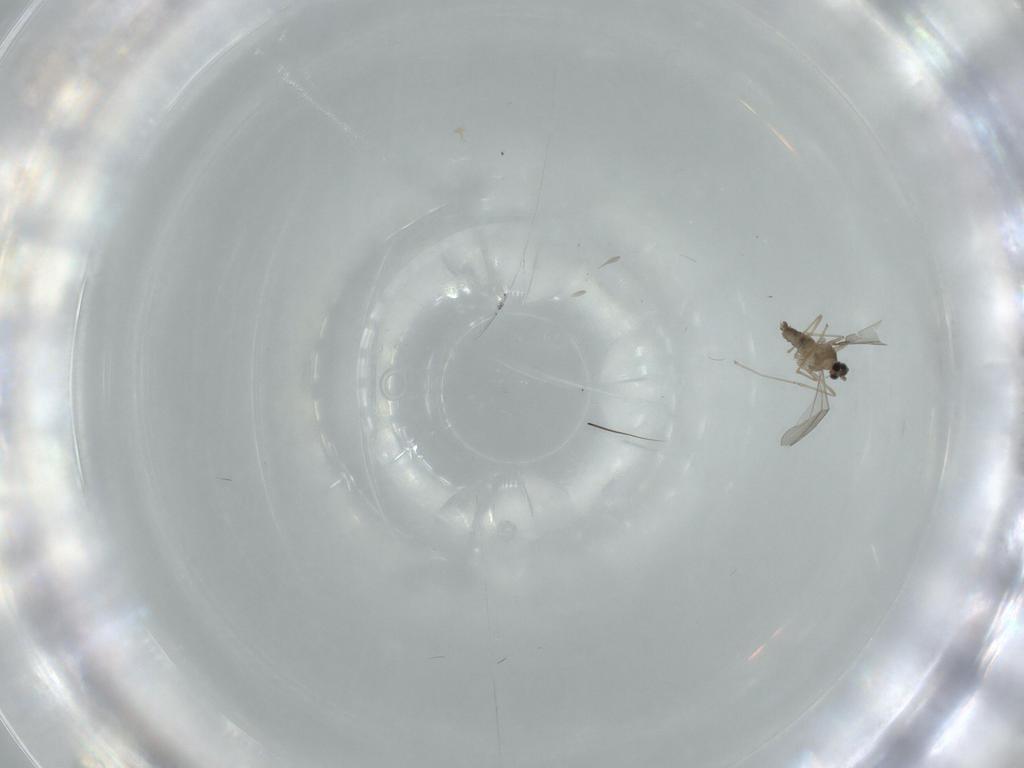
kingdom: Animalia
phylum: Arthropoda
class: Insecta
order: Diptera
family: Cecidomyiidae
